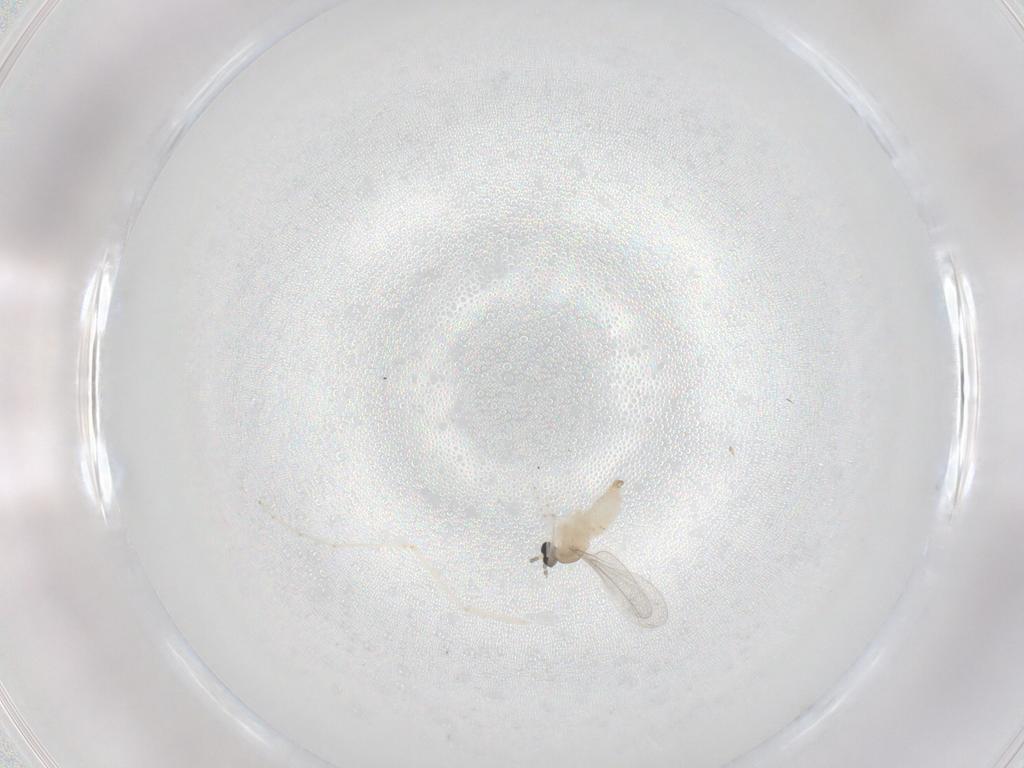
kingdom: Animalia
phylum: Arthropoda
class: Insecta
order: Diptera
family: Cecidomyiidae
